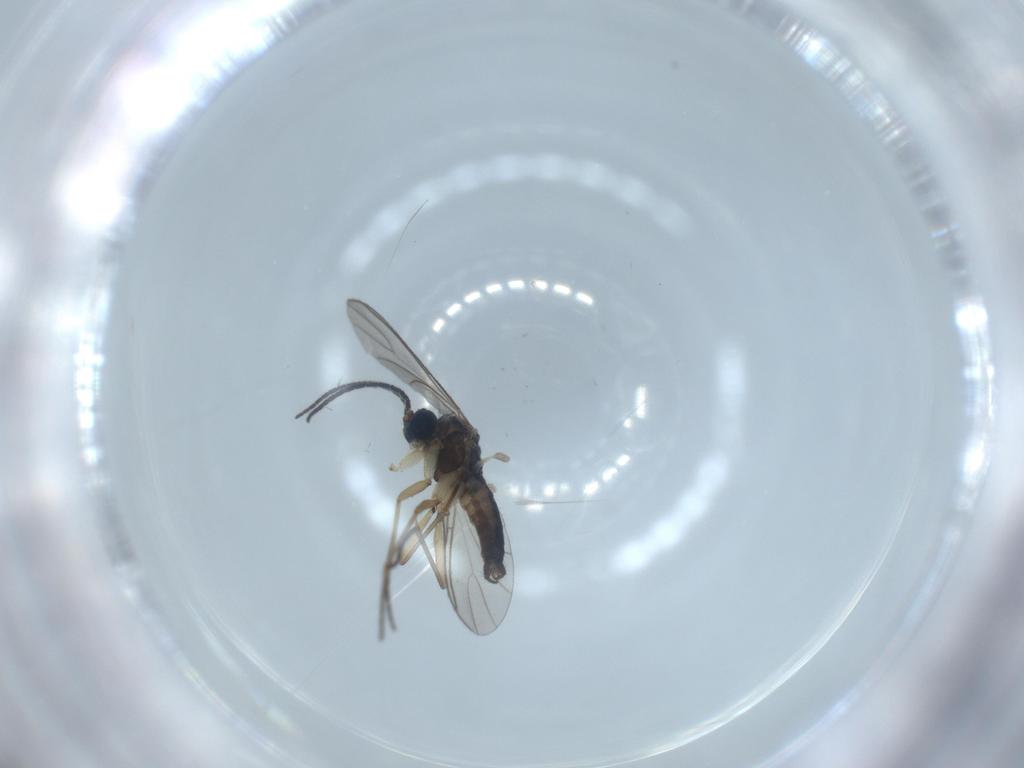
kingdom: Animalia
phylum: Arthropoda
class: Insecta
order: Diptera
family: Sciaridae
